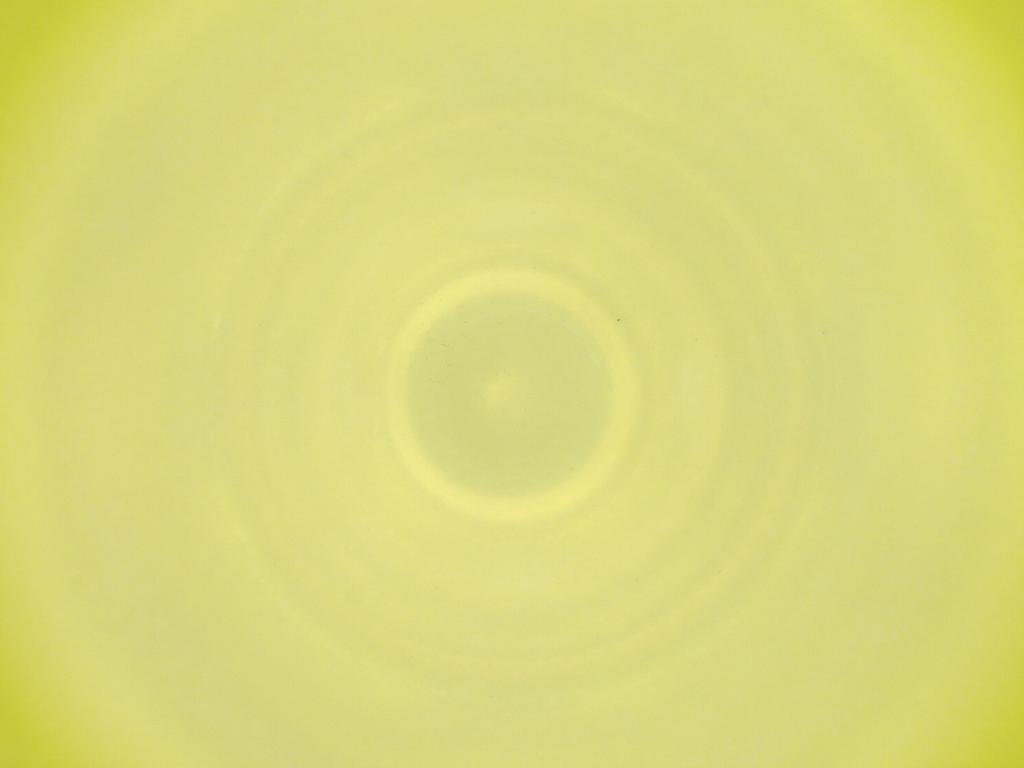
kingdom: Animalia
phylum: Arthropoda
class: Insecta
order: Diptera
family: Cecidomyiidae
